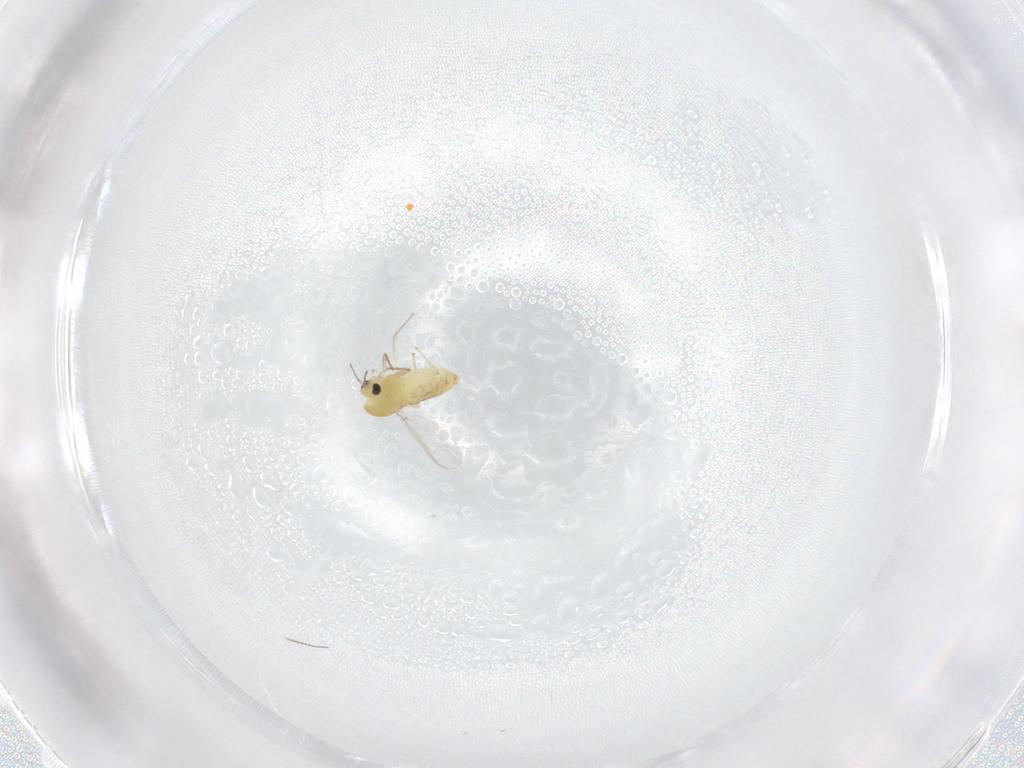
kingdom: Animalia
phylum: Arthropoda
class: Insecta
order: Diptera
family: Chironomidae
